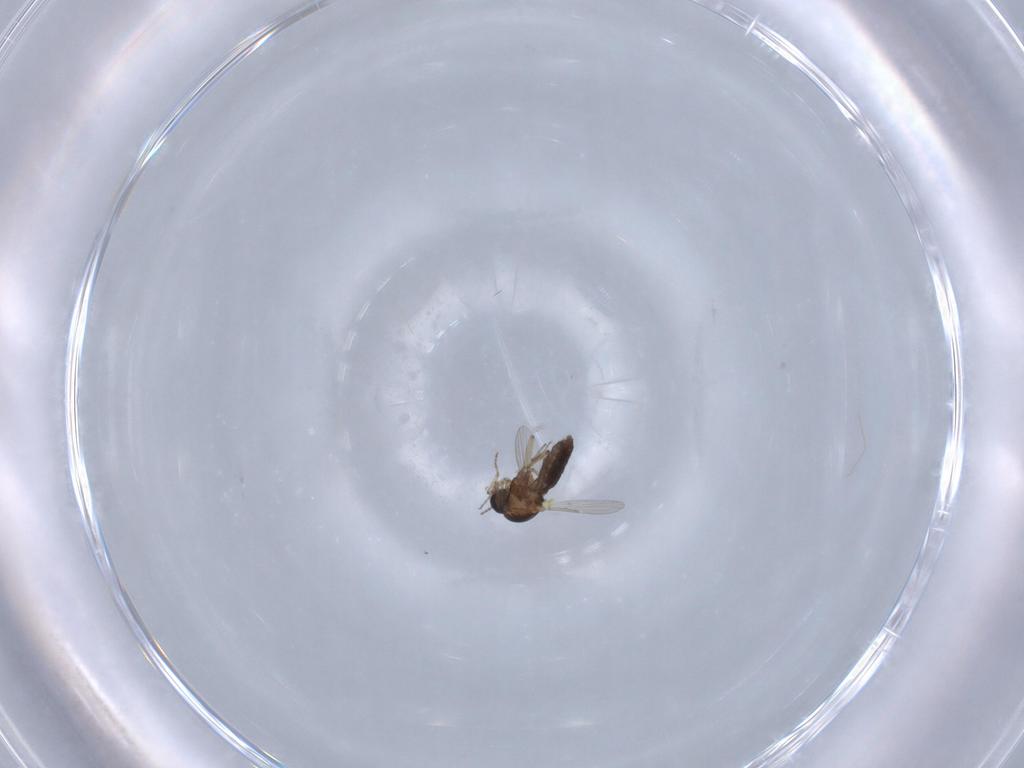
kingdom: Animalia
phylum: Arthropoda
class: Insecta
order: Diptera
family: Ceratopogonidae
